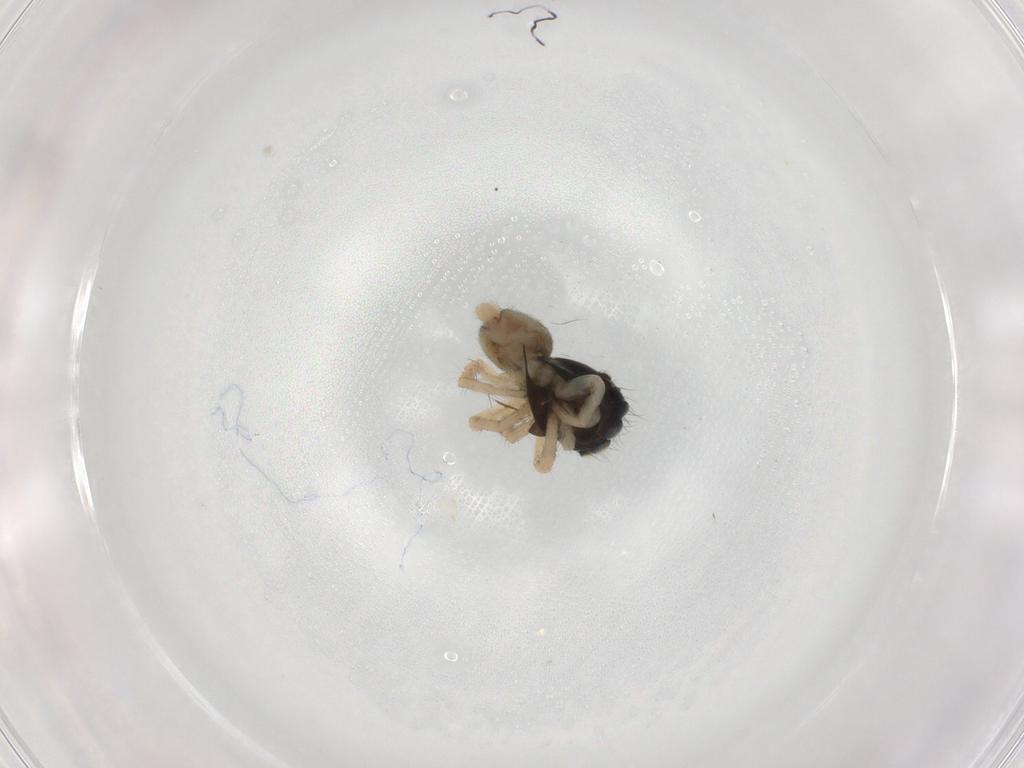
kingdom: Animalia
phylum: Arthropoda
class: Arachnida
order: Araneae
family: Salticidae
